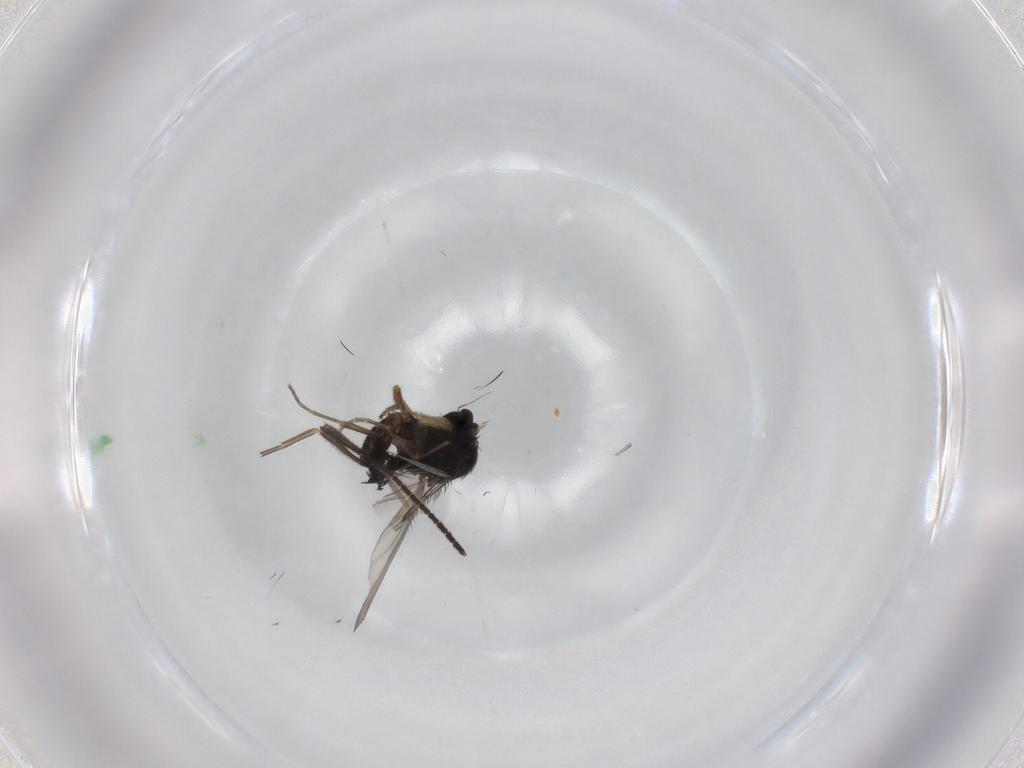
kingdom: Animalia
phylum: Arthropoda
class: Insecta
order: Diptera
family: Phoridae
